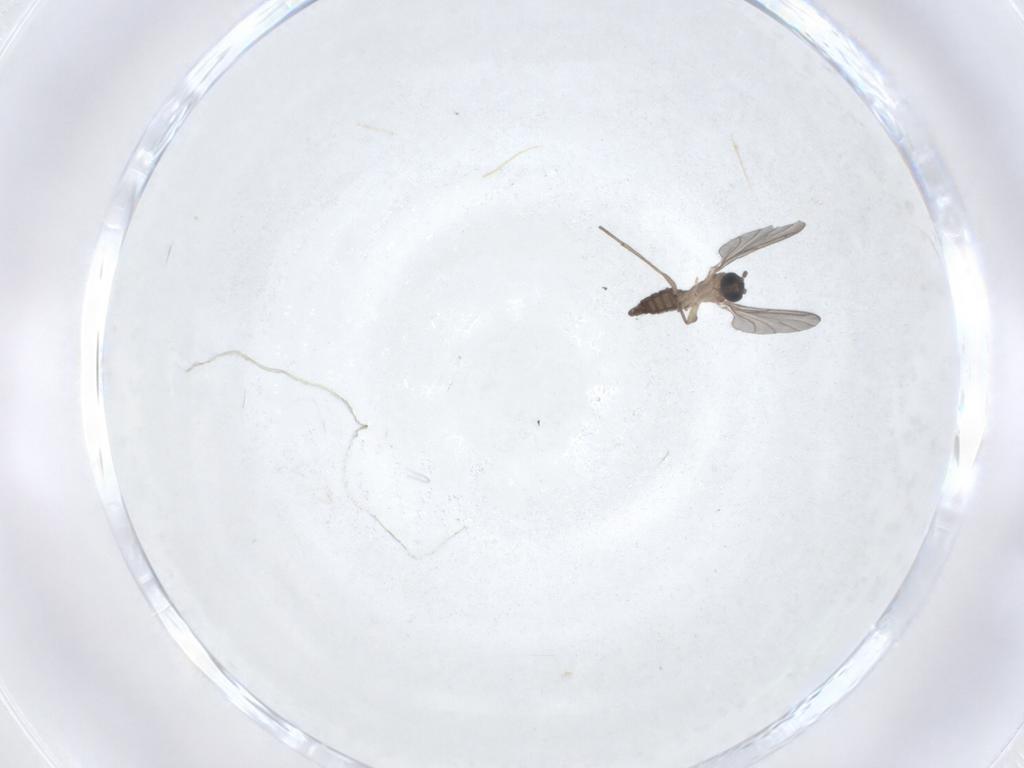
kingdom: Animalia
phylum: Arthropoda
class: Insecta
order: Diptera
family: Sciaridae
